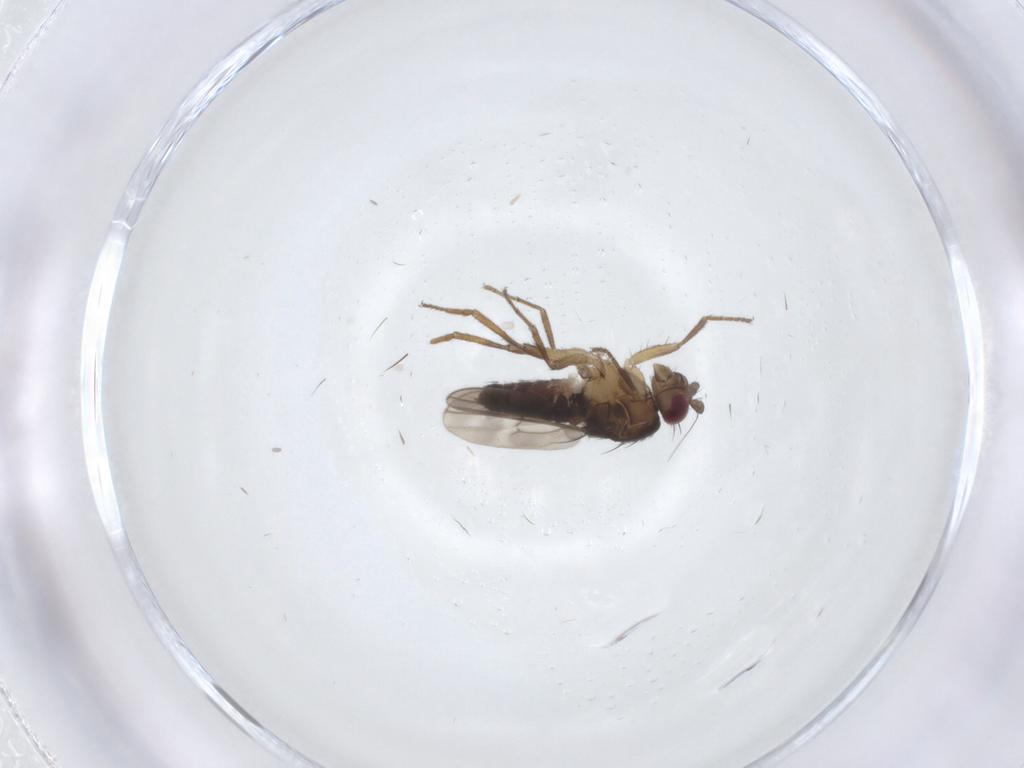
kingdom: Animalia
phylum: Arthropoda
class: Insecta
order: Diptera
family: Sphaeroceridae
